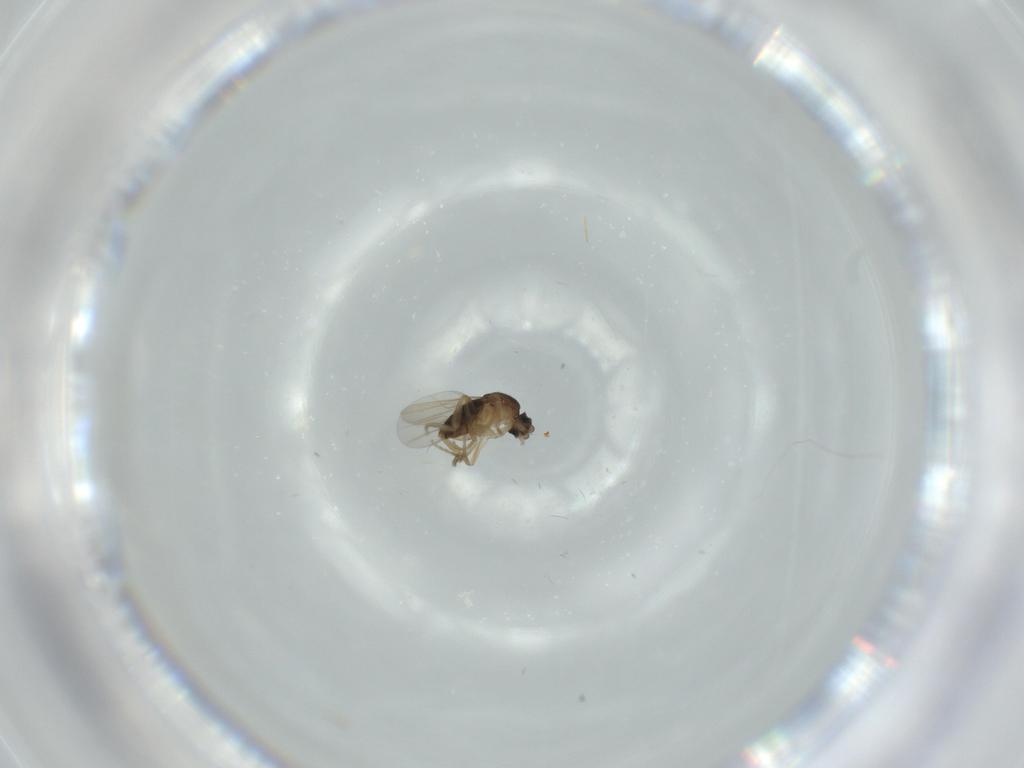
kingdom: Animalia
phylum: Arthropoda
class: Insecta
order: Diptera
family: Phoridae
